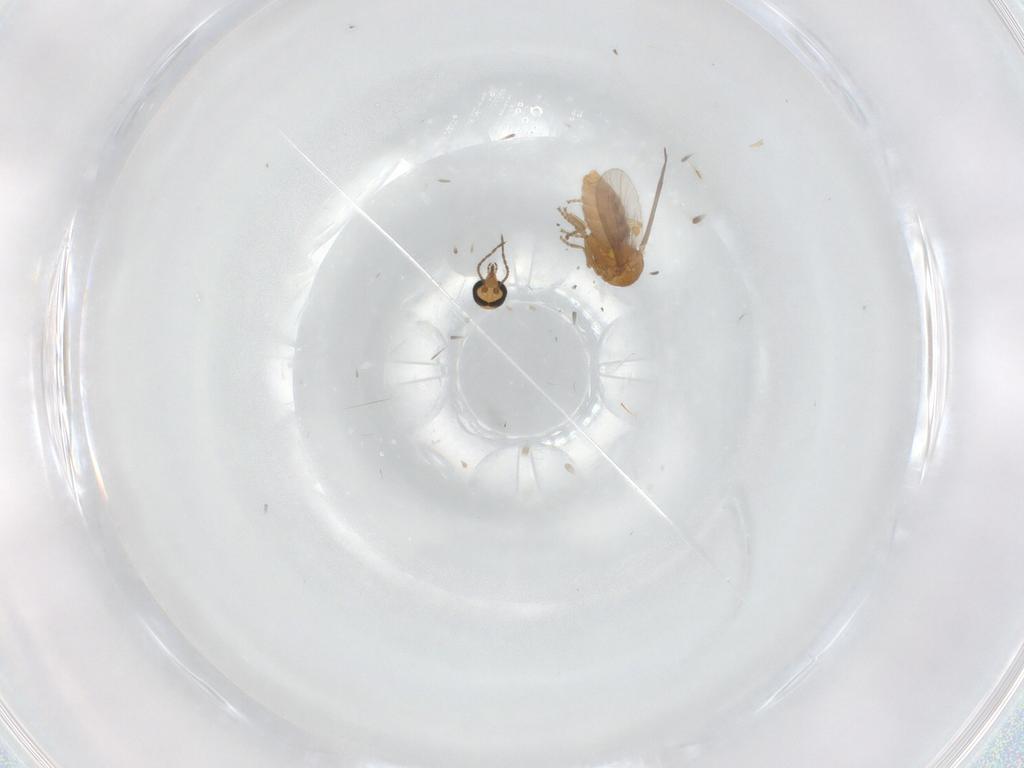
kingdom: Animalia
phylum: Arthropoda
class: Insecta
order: Diptera
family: Ceratopogonidae
